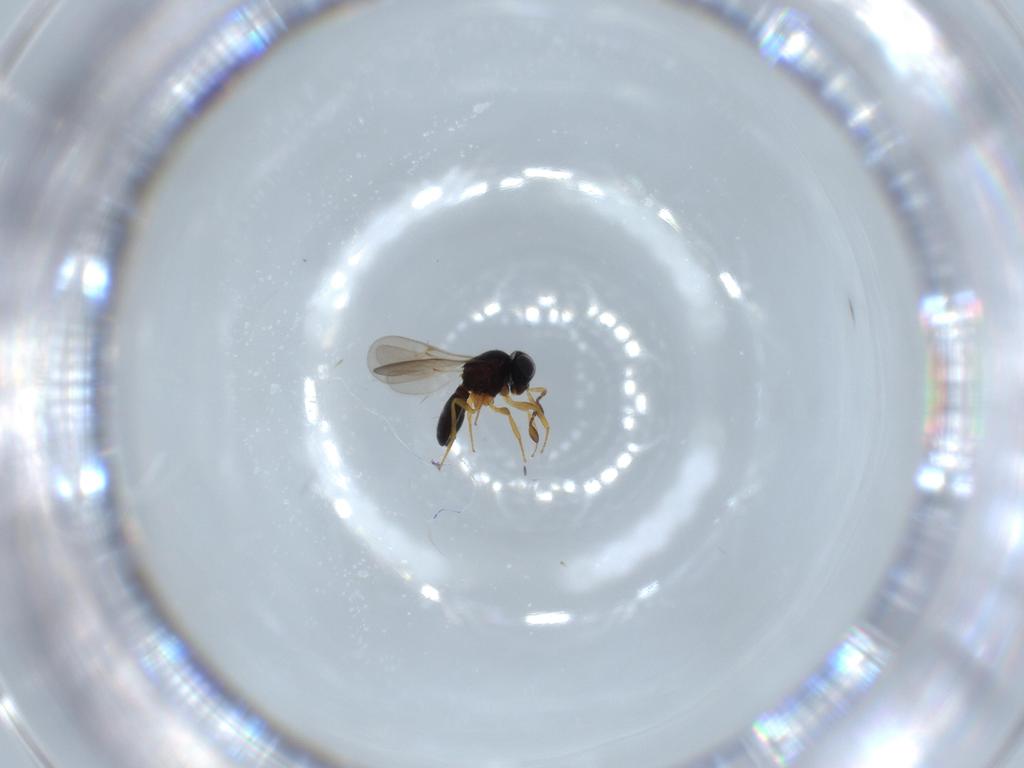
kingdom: Animalia
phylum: Arthropoda
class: Insecta
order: Hymenoptera
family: Scelionidae
